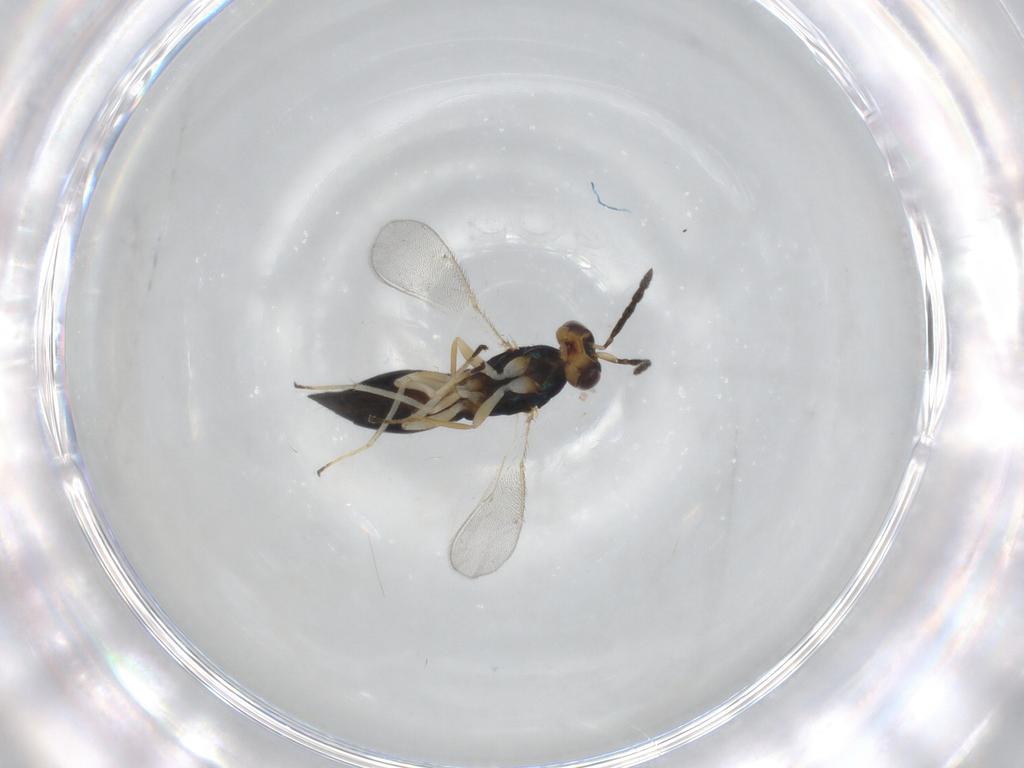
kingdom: Animalia
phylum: Arthropoda
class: Insecta
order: Hymenoptera
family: Eulophidae
